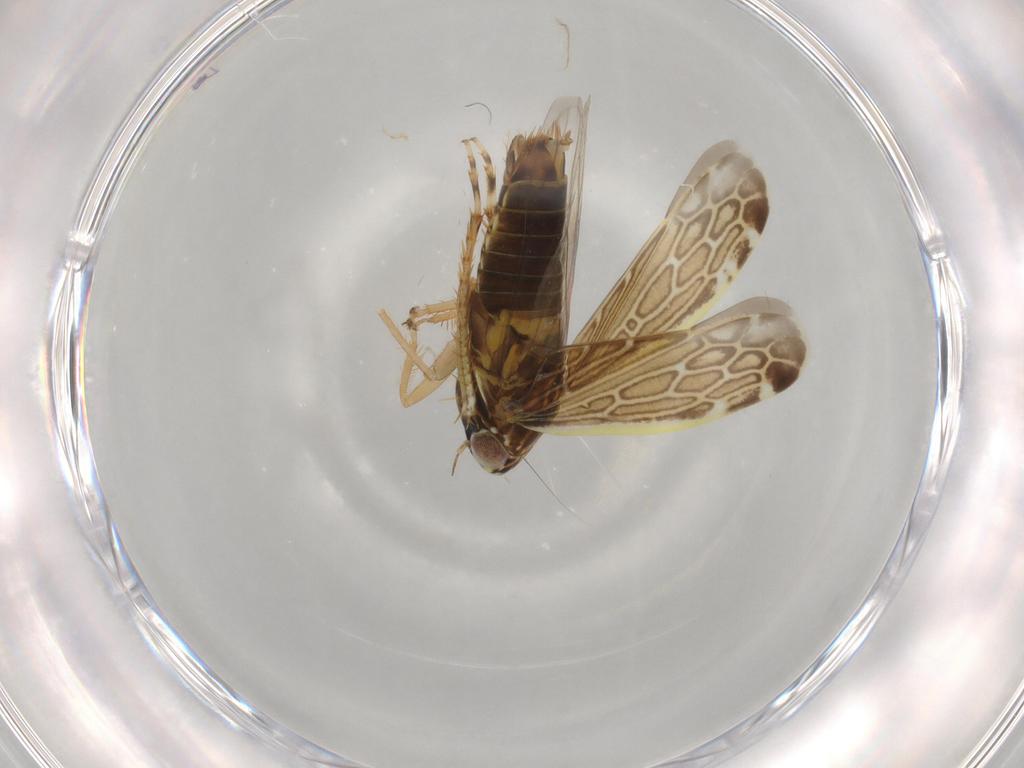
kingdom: Animalia
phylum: Arthropoda
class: Insecta
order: Hemiptera
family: Cicadellidae
